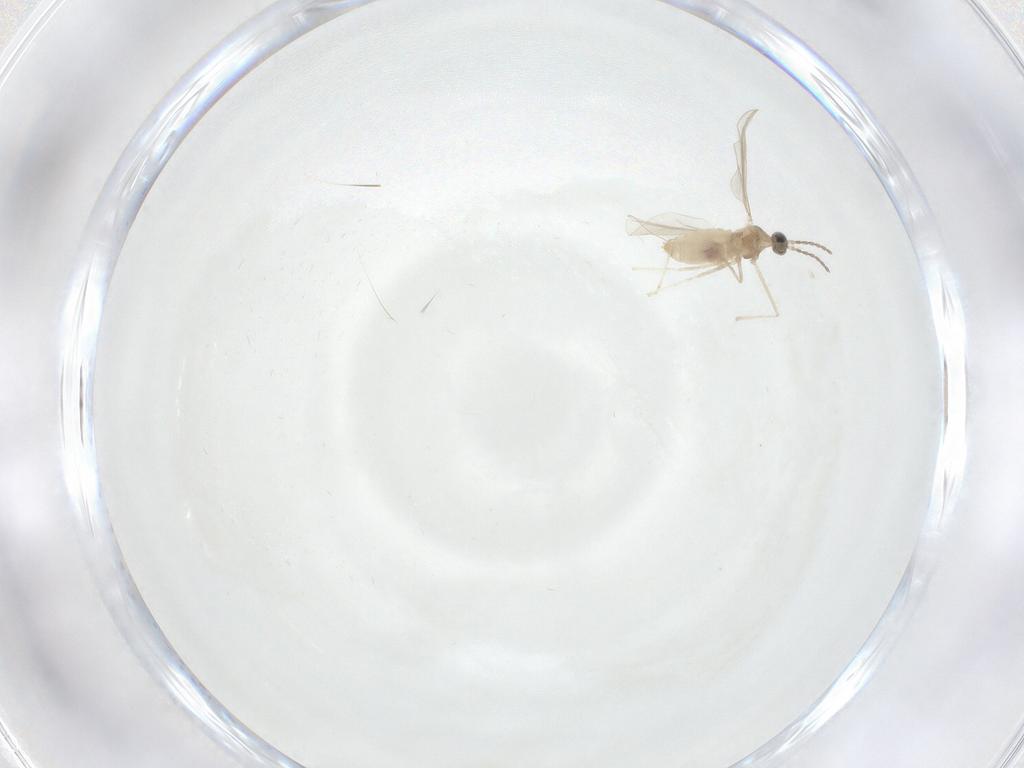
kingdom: Animalia
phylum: Arthropoda
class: Insecta
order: Diptera
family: Cecidomyiidae
